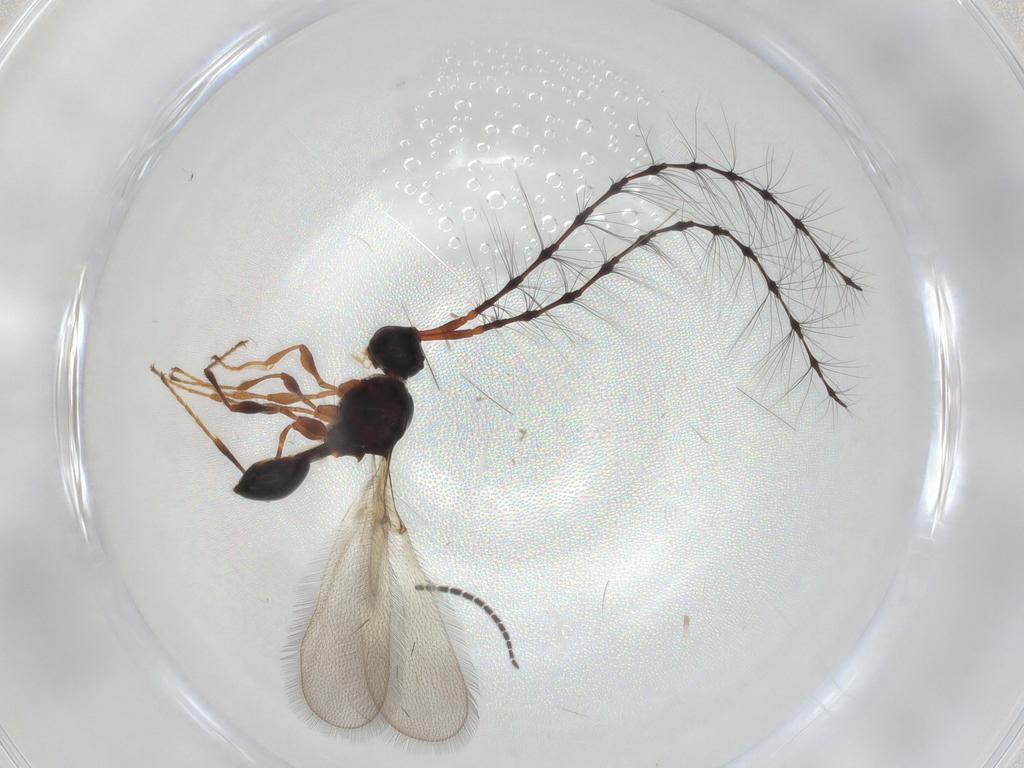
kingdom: Animalia
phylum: Arthropoda
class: Insecta
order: Hymenoptera
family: Diapriidae
